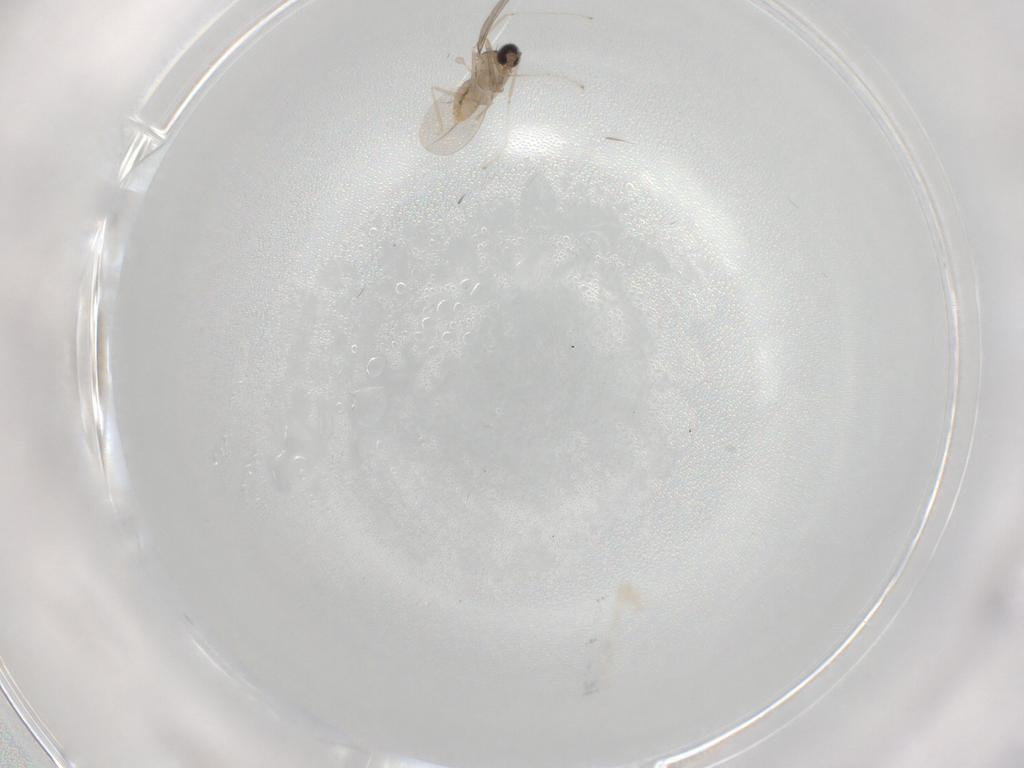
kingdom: Animalia
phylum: Arthropoda
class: Insecta
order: Diptera
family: Cecidomyiidae
